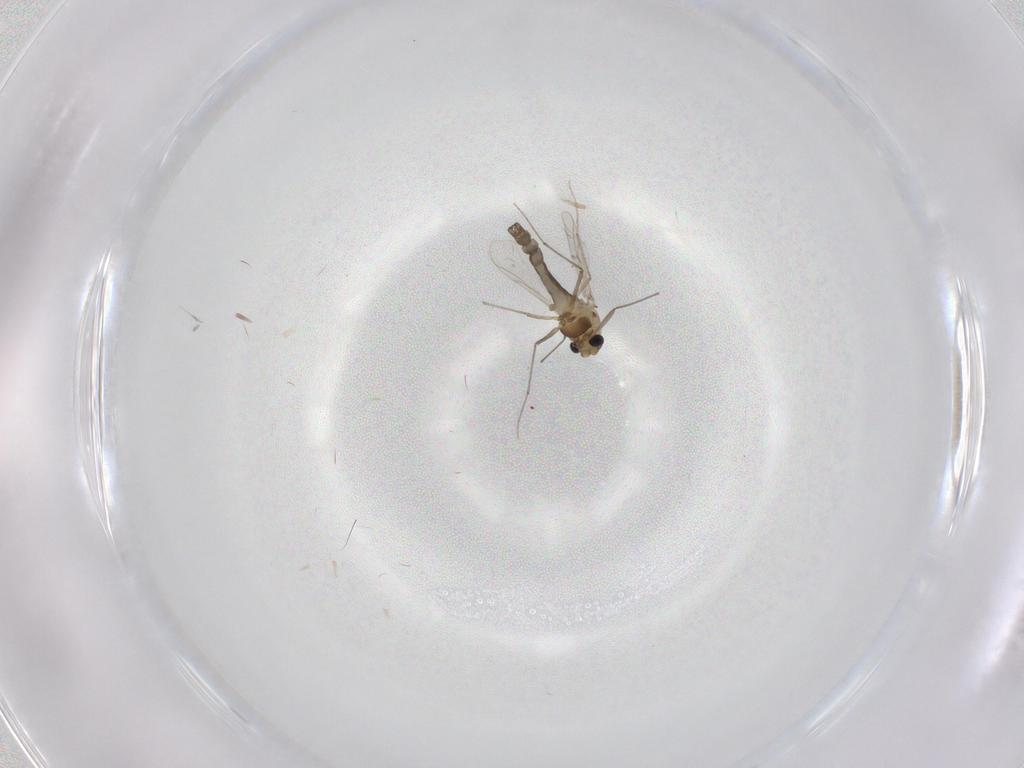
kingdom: Animalia
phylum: Arthropoda
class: Insecta
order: Diptera
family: Chironomidae
